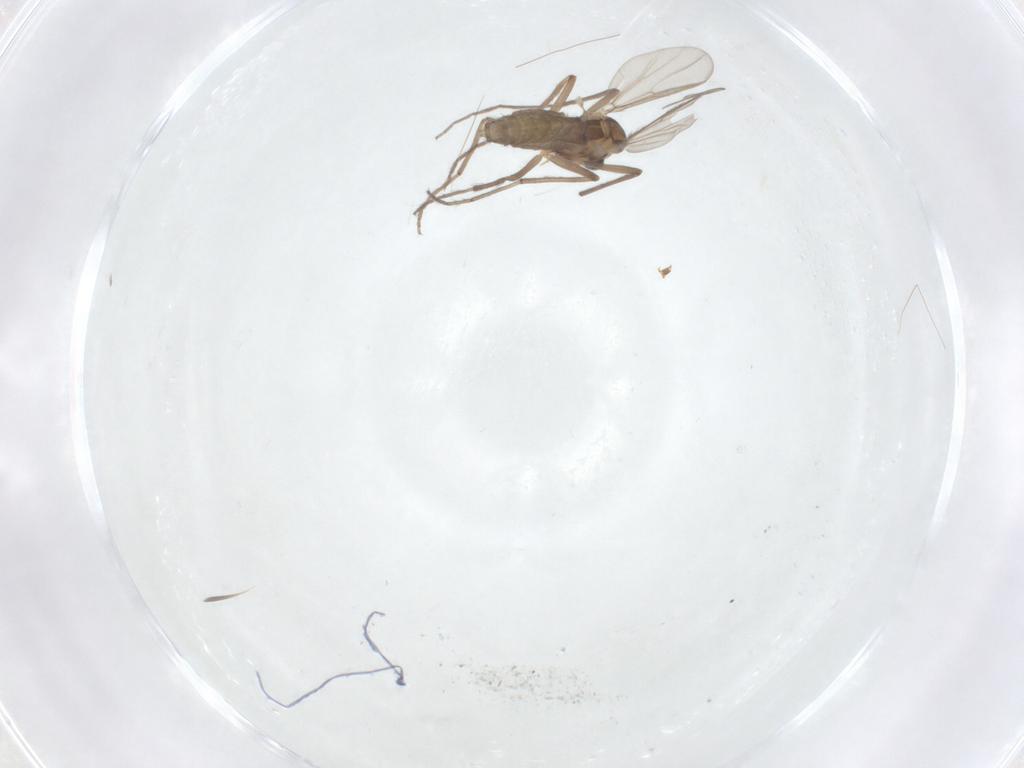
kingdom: Animalia
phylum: Arthropoda
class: Insecta
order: Diptera
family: Chironomidae
